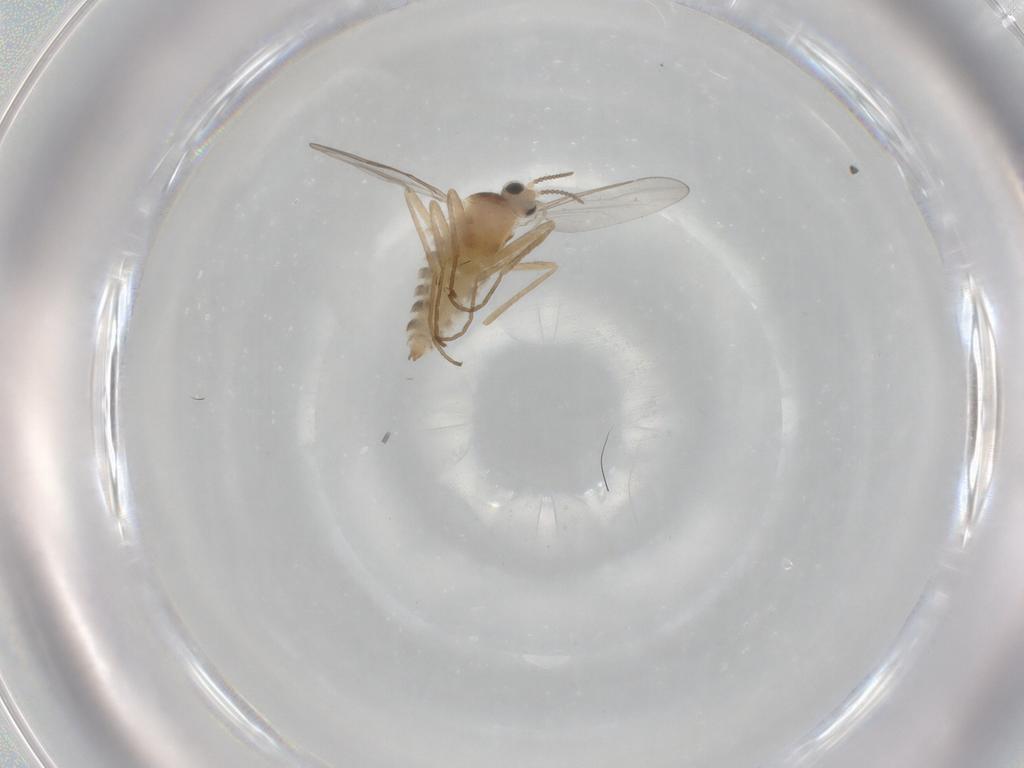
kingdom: Animalia
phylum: Arthropoda
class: Insecta
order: Diptera
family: Cecidomyiidae
